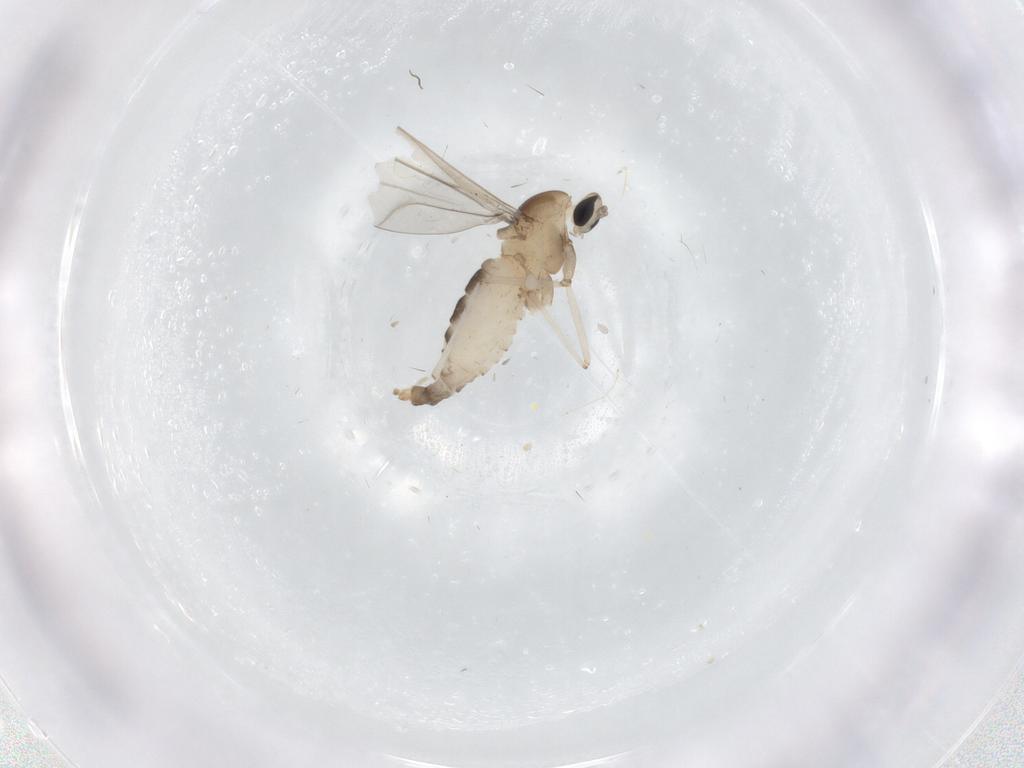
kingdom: Animalia
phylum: Arthropoda
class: Insecta
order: Diptera
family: Cecidomyiidae
